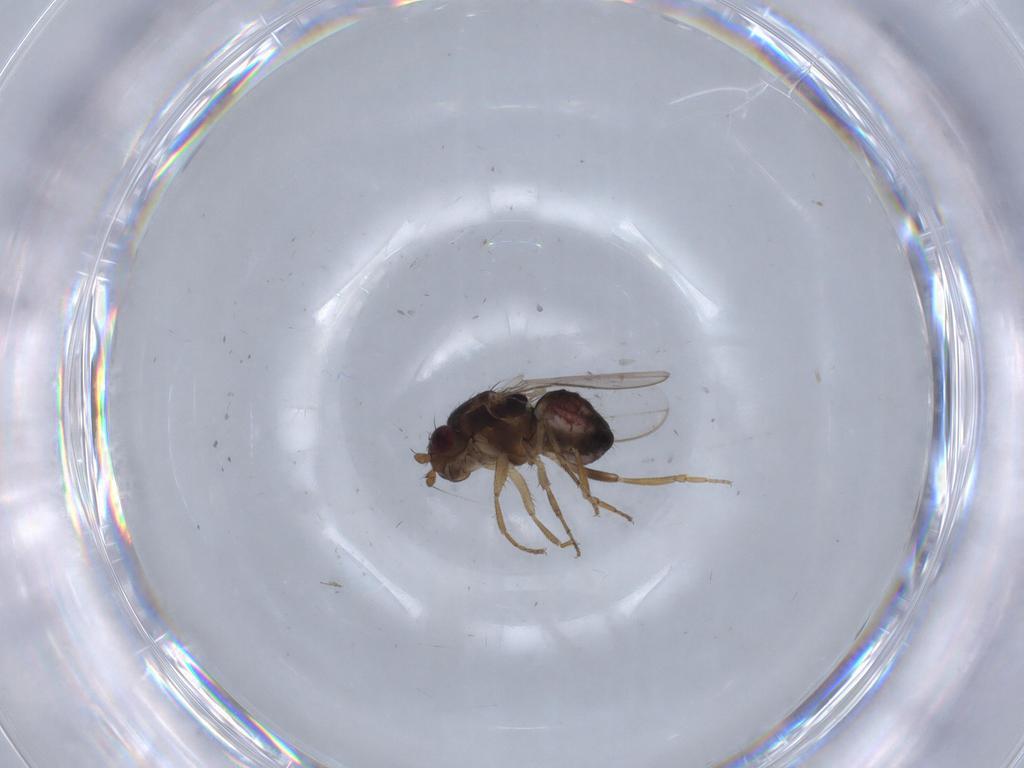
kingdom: Animalia
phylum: Arthropoda
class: Insecta
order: Diptera
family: Sphaeroceridae
